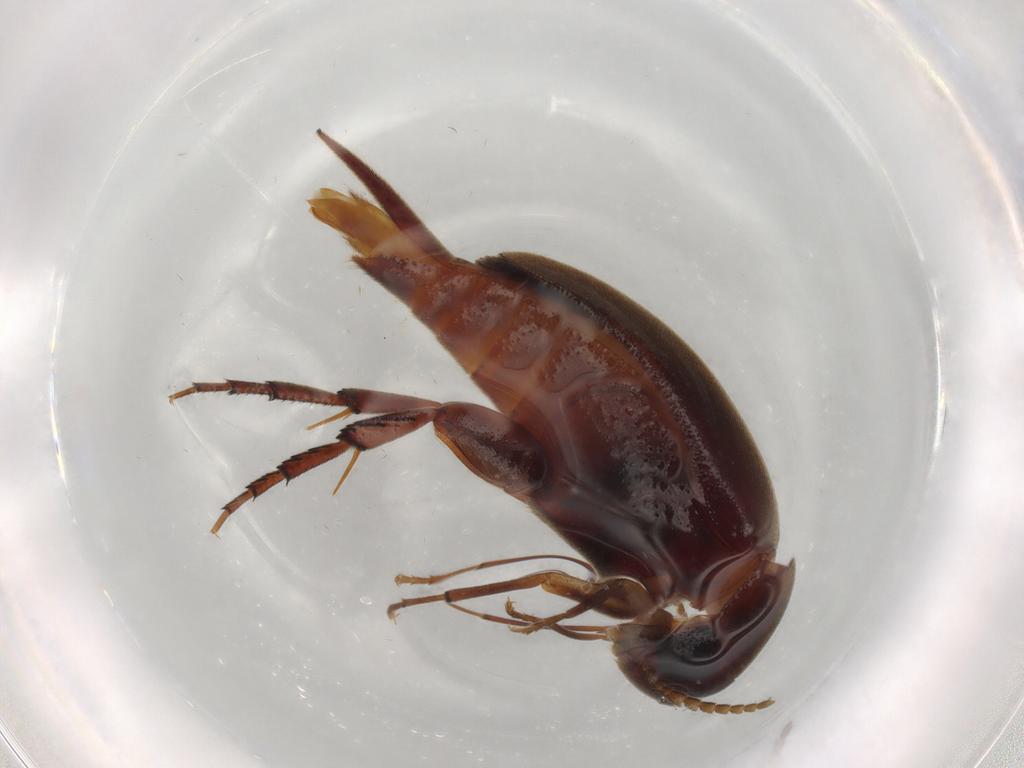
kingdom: Animalia
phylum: Arthropoda
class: Insecta
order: Coleoptera
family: Mordellidae
